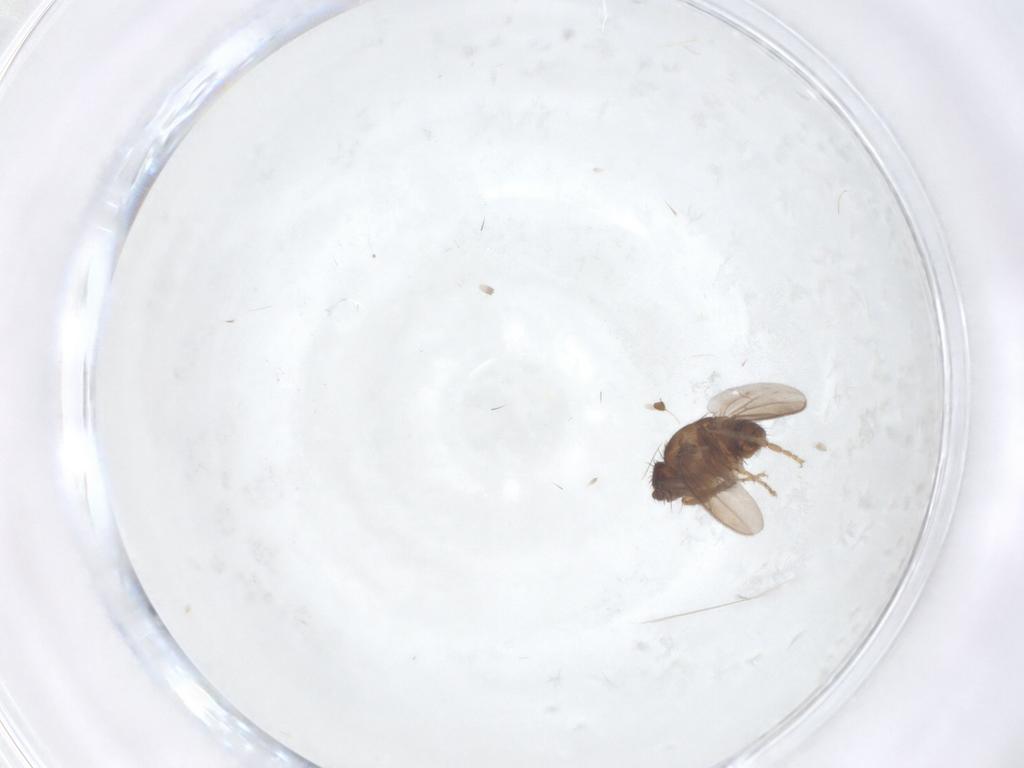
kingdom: Animalia
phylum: Arthropoda
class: Insecta
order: Diptera
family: Sphaeroceridae
